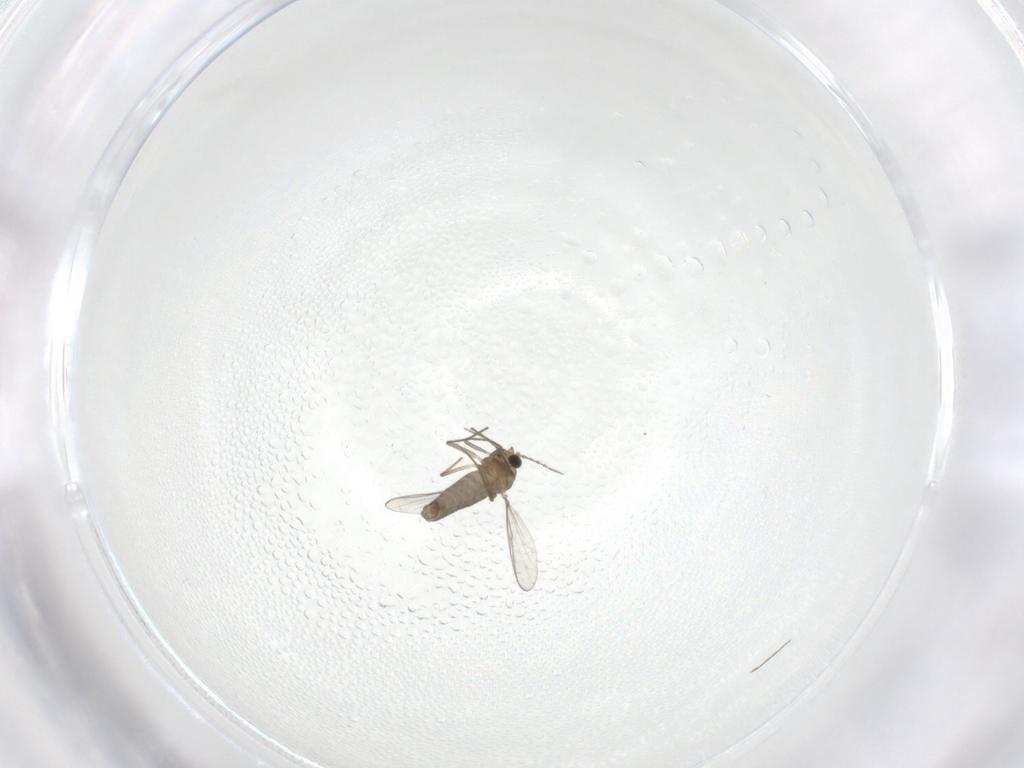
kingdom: Animalia
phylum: Arthropoda
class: Insecta
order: Diptera
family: Chironomidae
